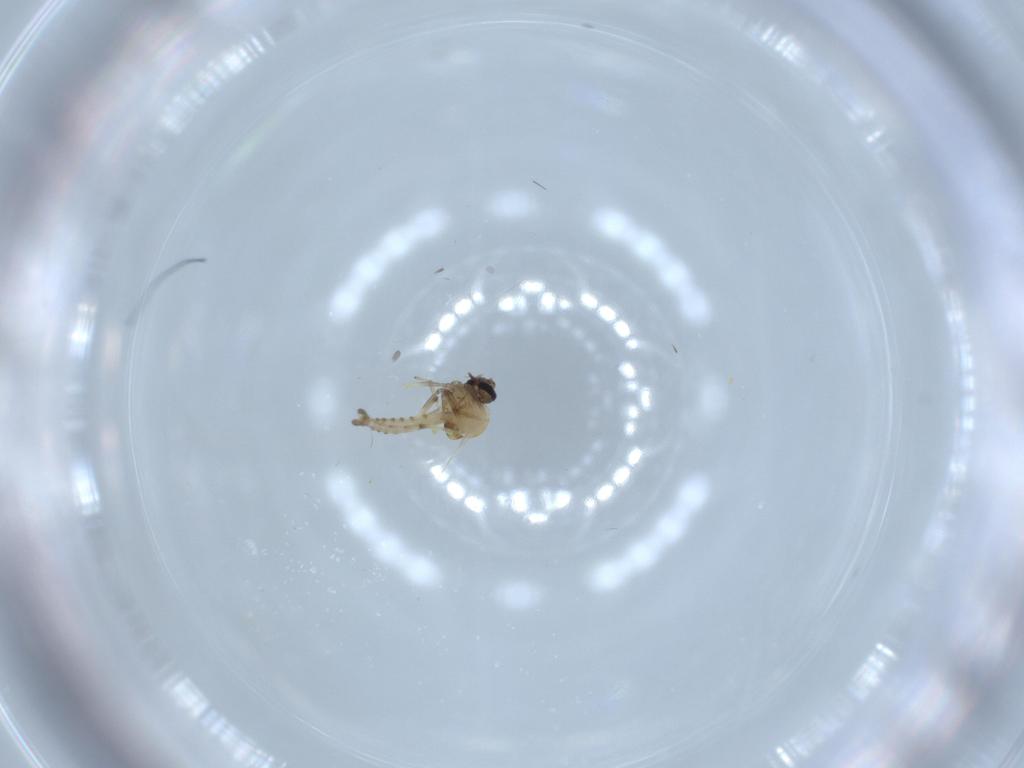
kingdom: Animalia
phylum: Arthropoda
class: Insecta
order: Diptera
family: Ceratopogonidae
